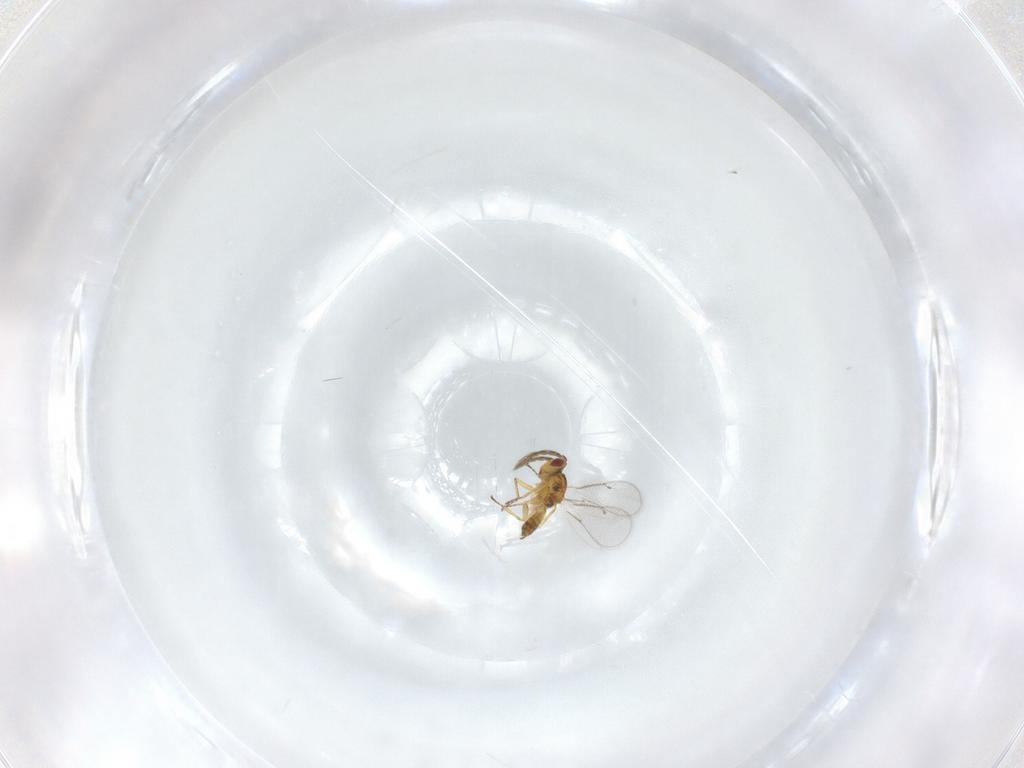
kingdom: Animalia
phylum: Arthropoda
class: Insecta
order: Hymenoptera
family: Eulophidae
